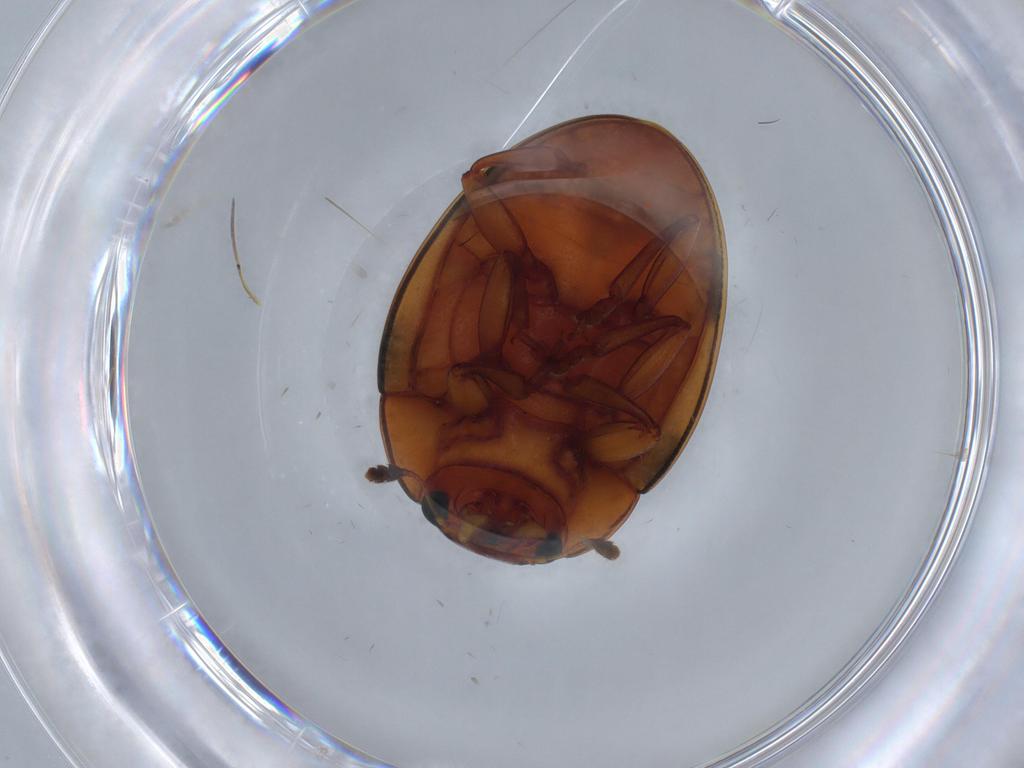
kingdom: Animalia
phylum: Arthropoda
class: Insecta
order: Coleoptera
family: Erotylidae
